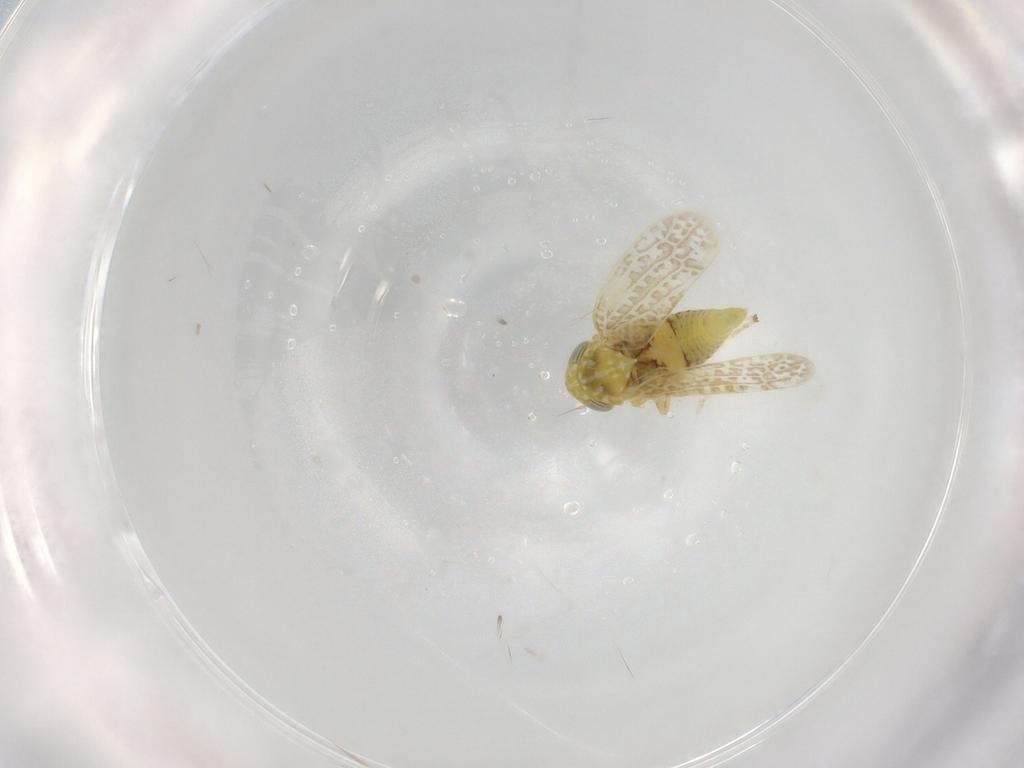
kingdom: Animalia
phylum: Arthropoda
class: Insecta
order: Hemiptera
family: Cicadellidae
